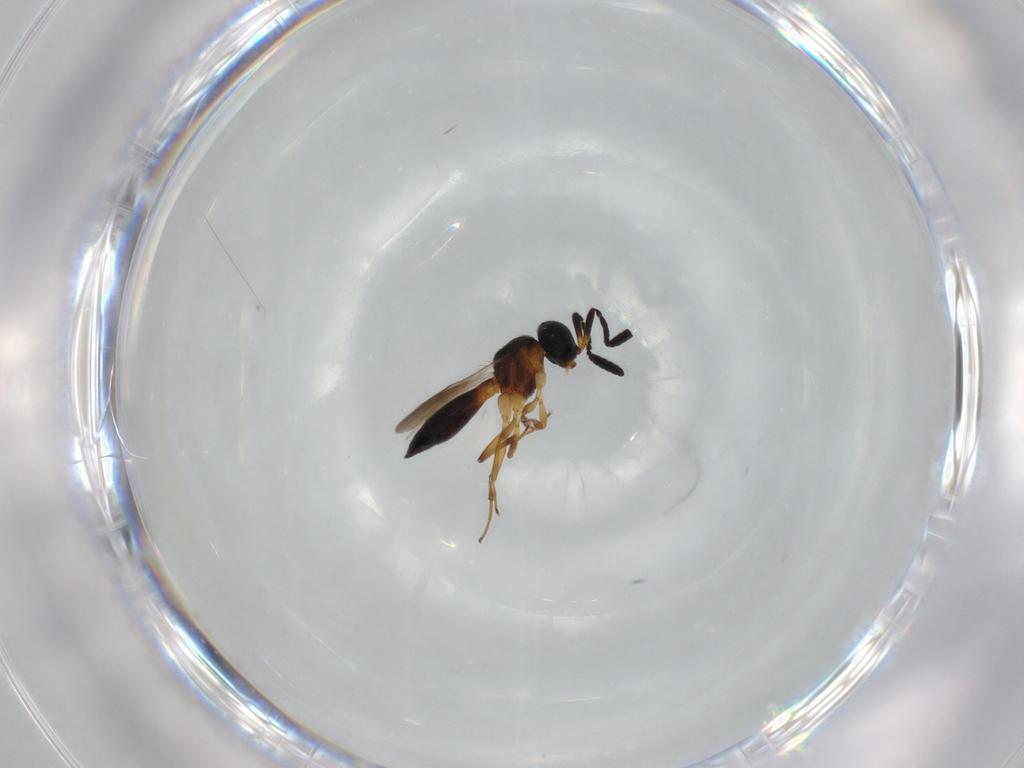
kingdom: Animalia
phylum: Arthropoda
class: Insecta
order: Hymenoptera
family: Scelionidae
